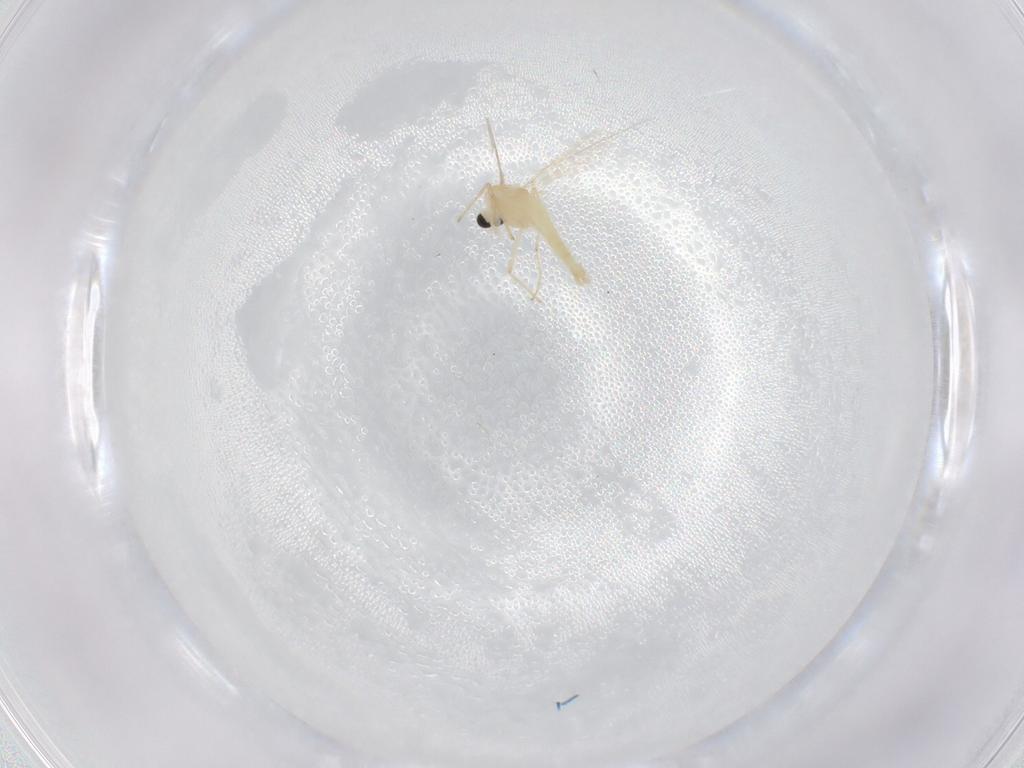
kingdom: Animalia
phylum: Arthropoda
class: Insecta
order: Diptera
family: Chironomidae
